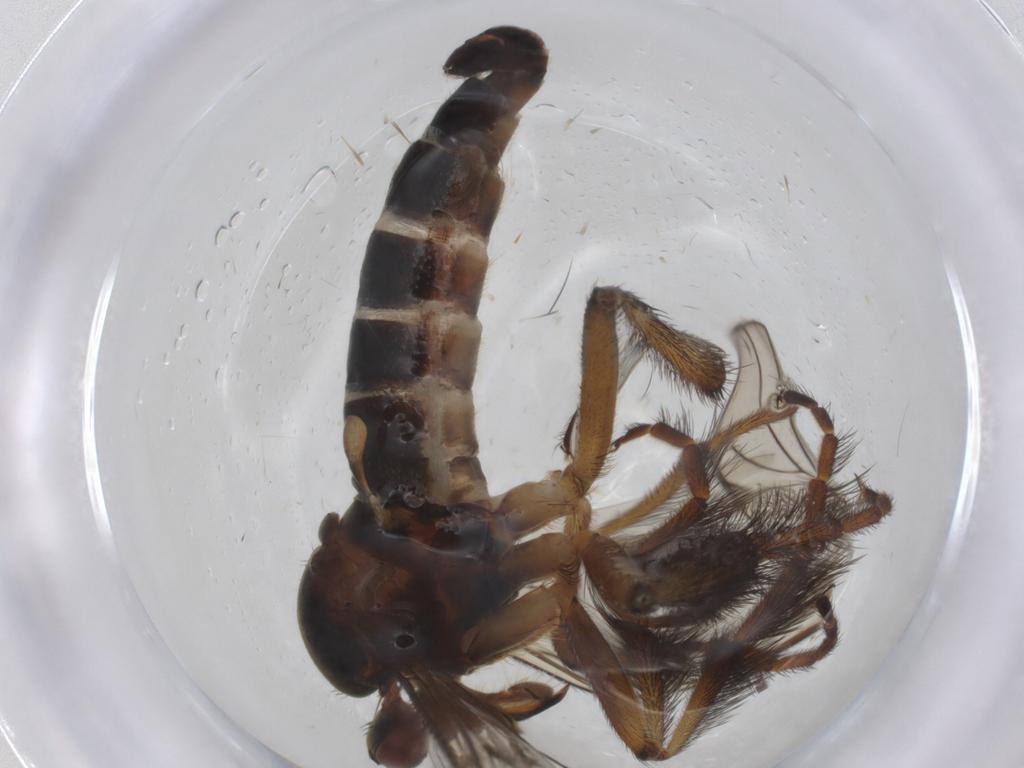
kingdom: Animalia
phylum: Arthropoda
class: Insecta
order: Diptera
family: Empididae
